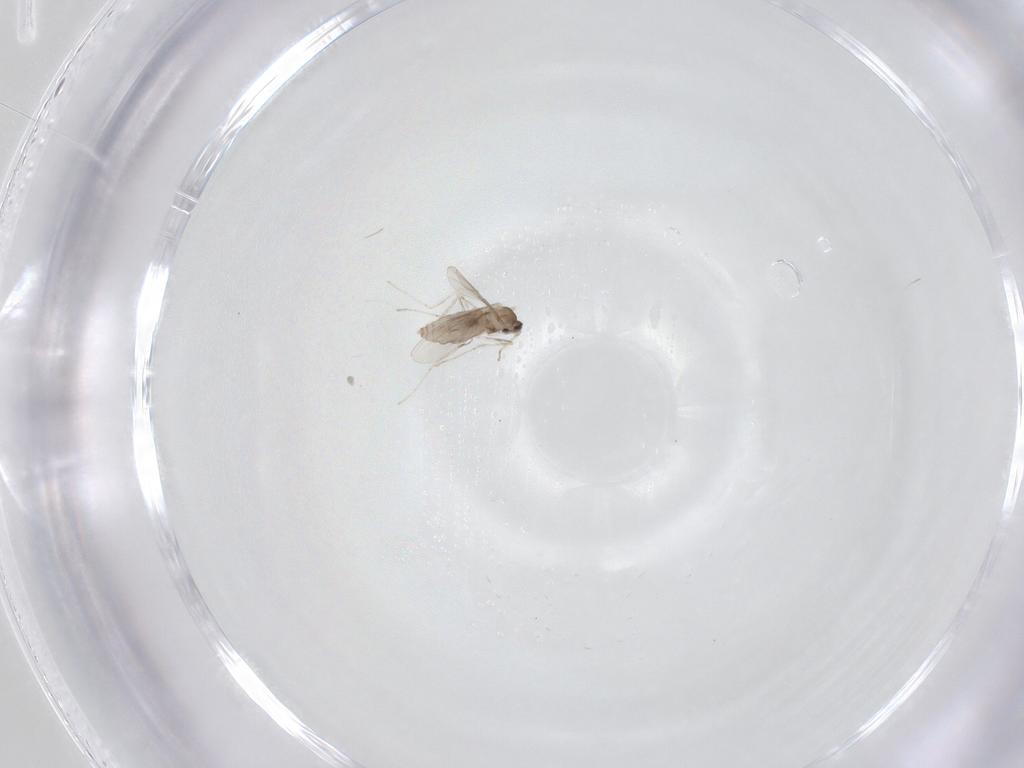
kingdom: Animalia
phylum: Arthropoda
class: Insecta
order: Diptera
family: Cecidomyiidae
